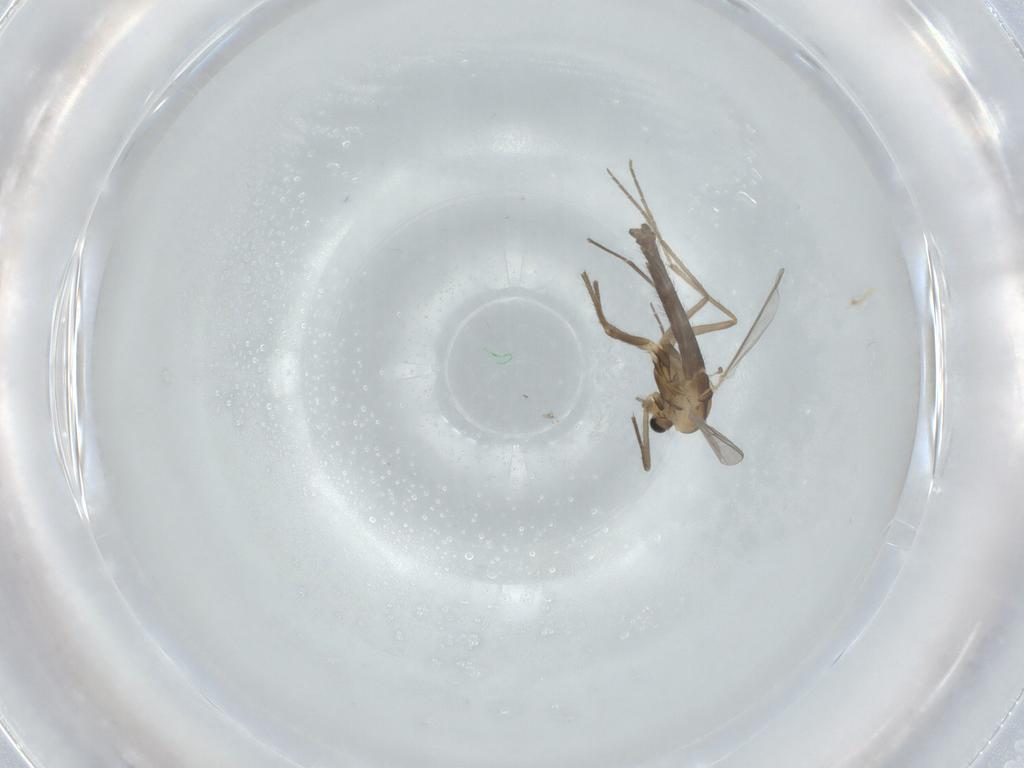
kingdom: Animalia
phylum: Arthropoda
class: Insecta
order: Diptera
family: Chironomidae
